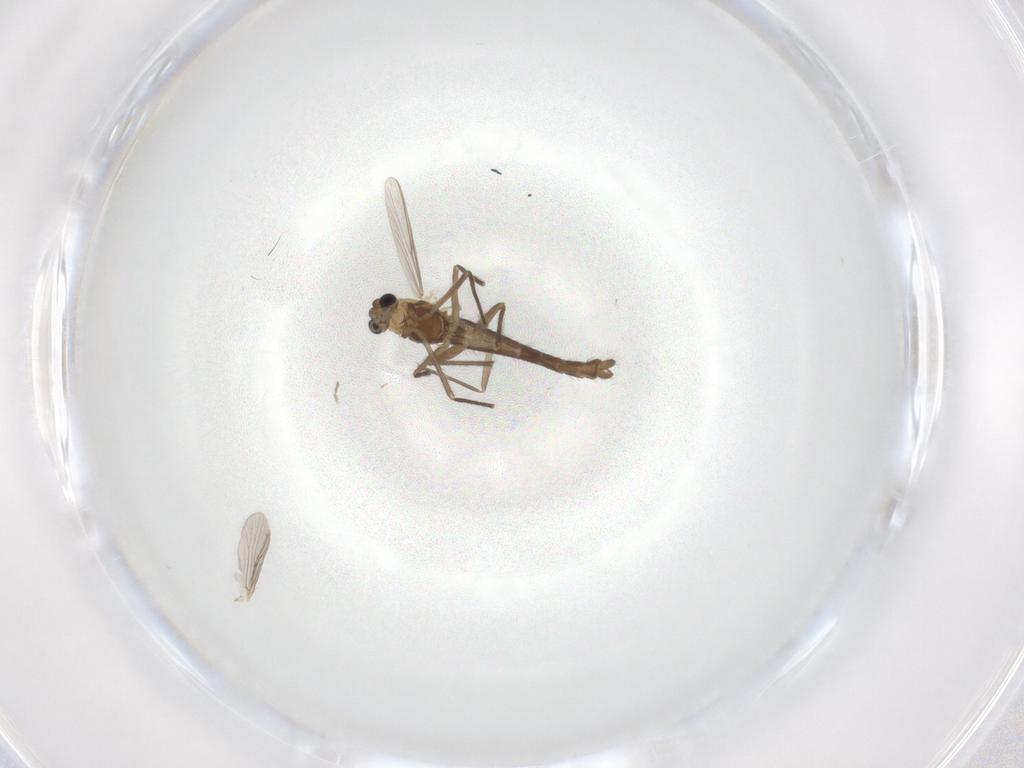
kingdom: Animalia
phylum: Arthropoda
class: Insecta
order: Diptera
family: Chironomidae
